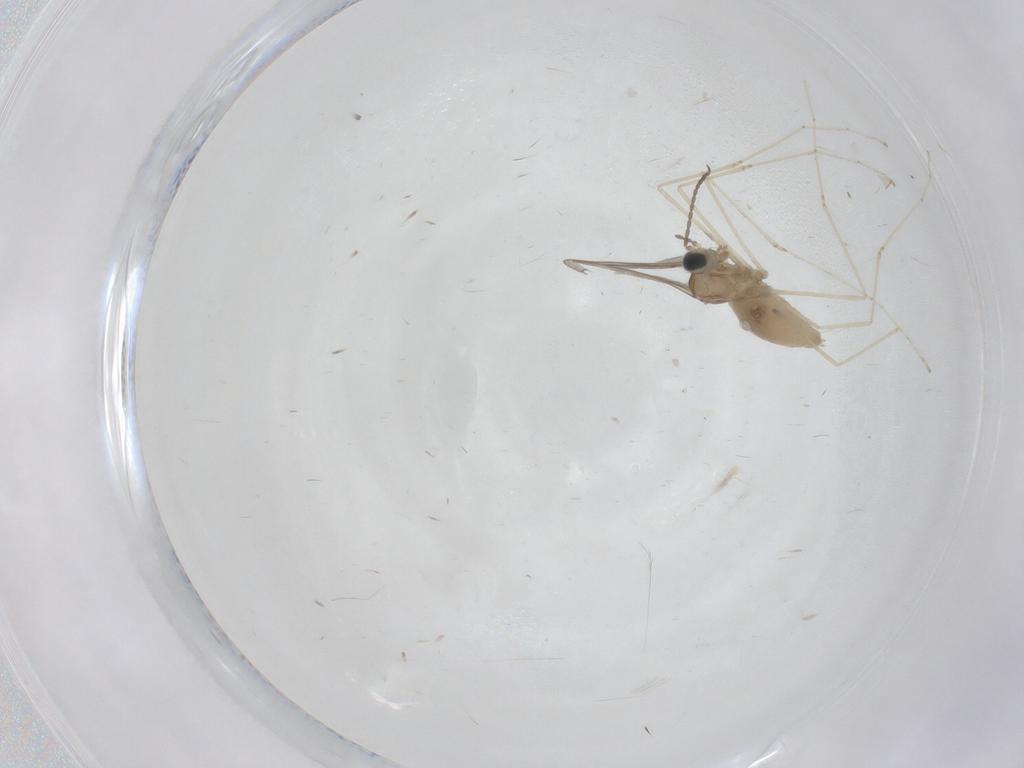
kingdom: Animalia
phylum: Arthropoda
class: Insecta
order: Diptera
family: Cecidomyiidae
